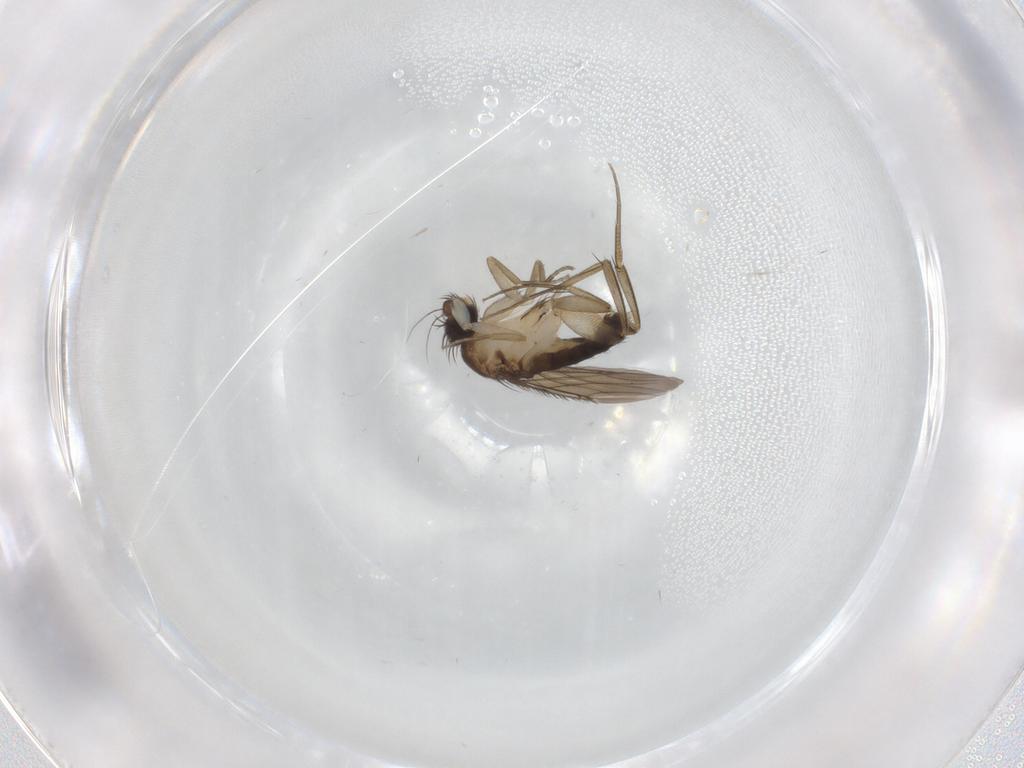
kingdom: Animalia
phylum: Arthropoda
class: Insecta
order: Diptera
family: Phoridae
